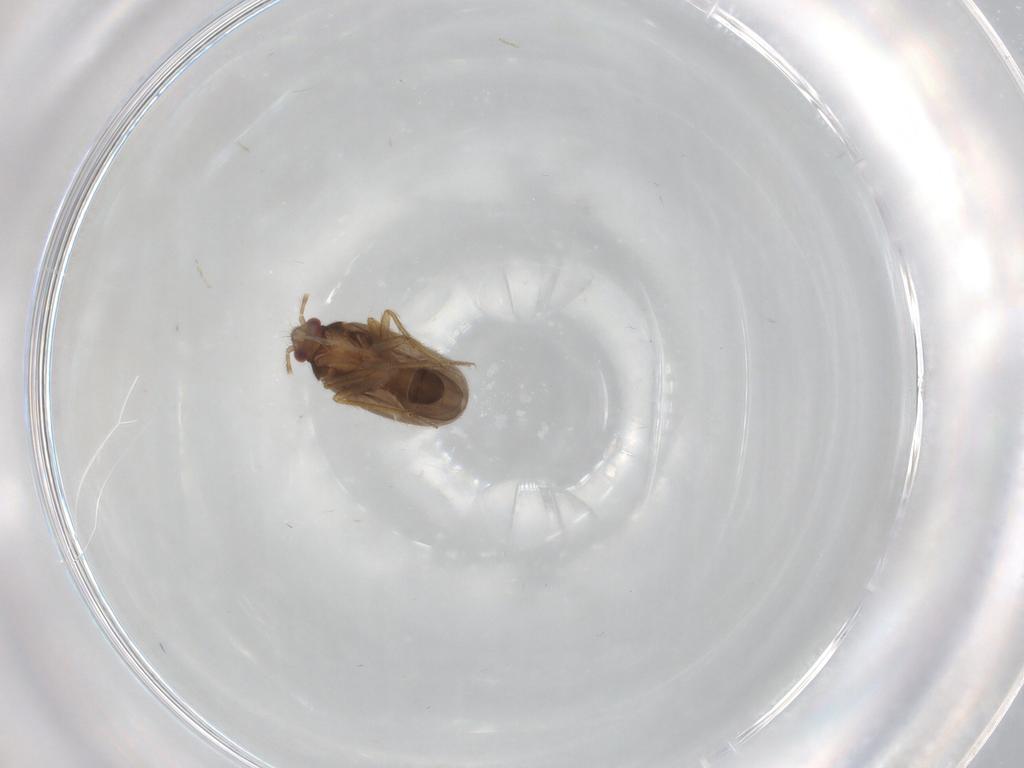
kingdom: Animalia
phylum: Arthropoda
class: Insecta
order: Hemiptera
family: Ceratocombidae
